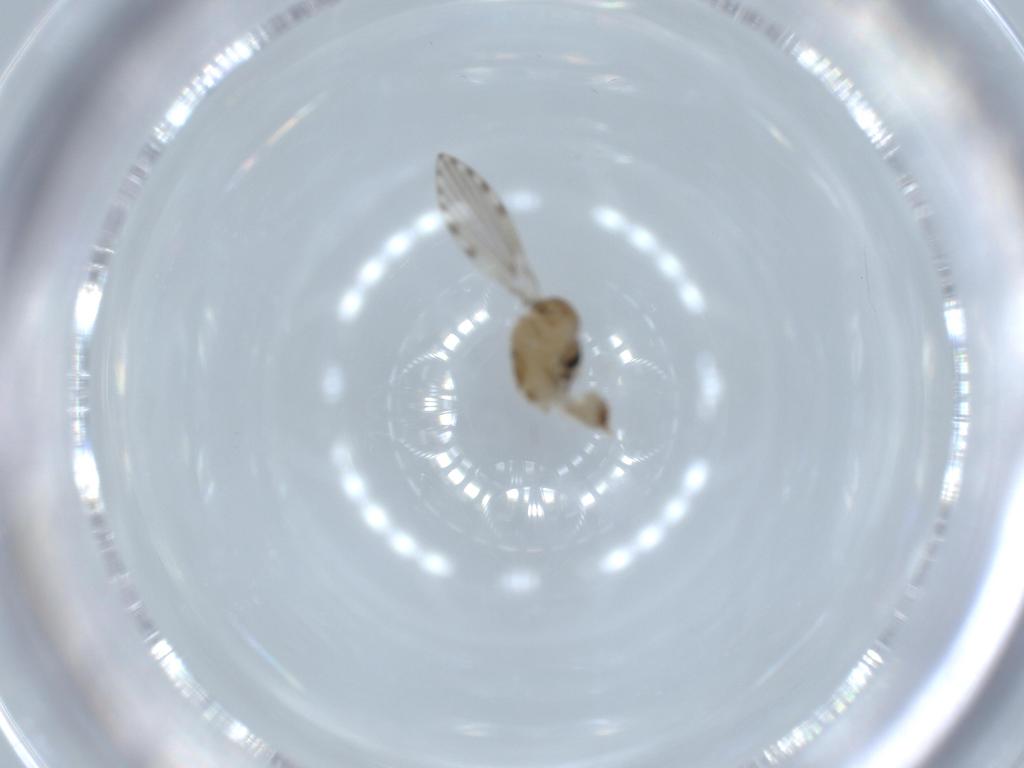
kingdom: Animalia
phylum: Arthropoda
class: Insecta
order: Diptera
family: Psychodidae
